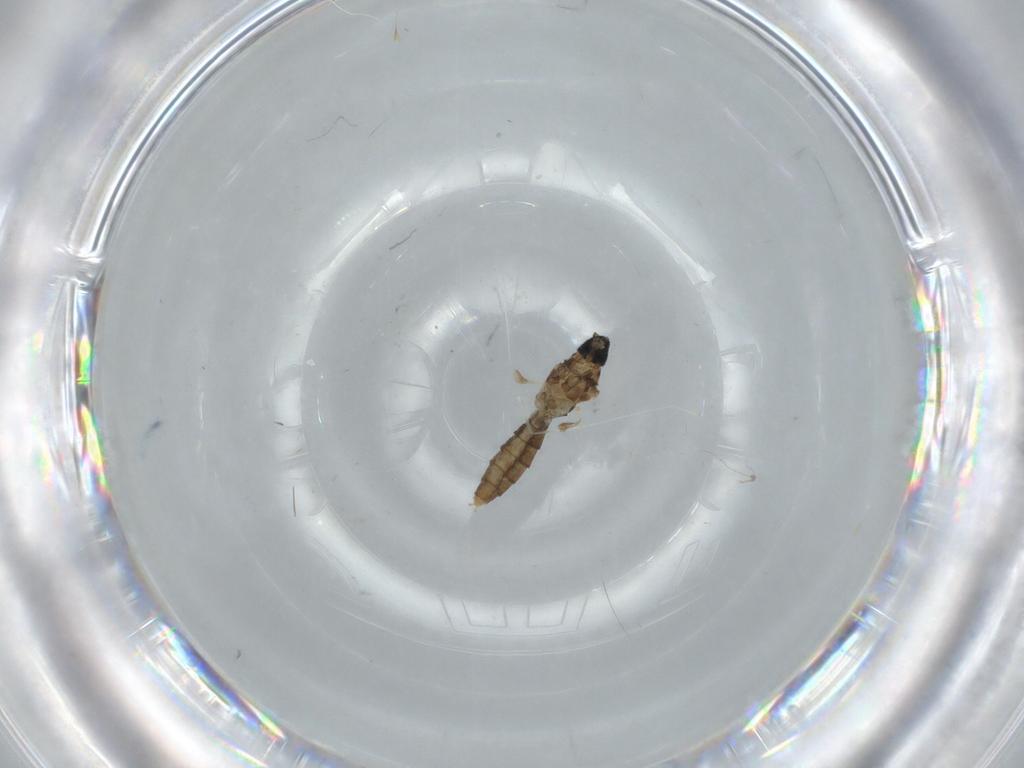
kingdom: Animalia
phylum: Arthropoda
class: Insecta
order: Diptera
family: Cecidomyiidae
